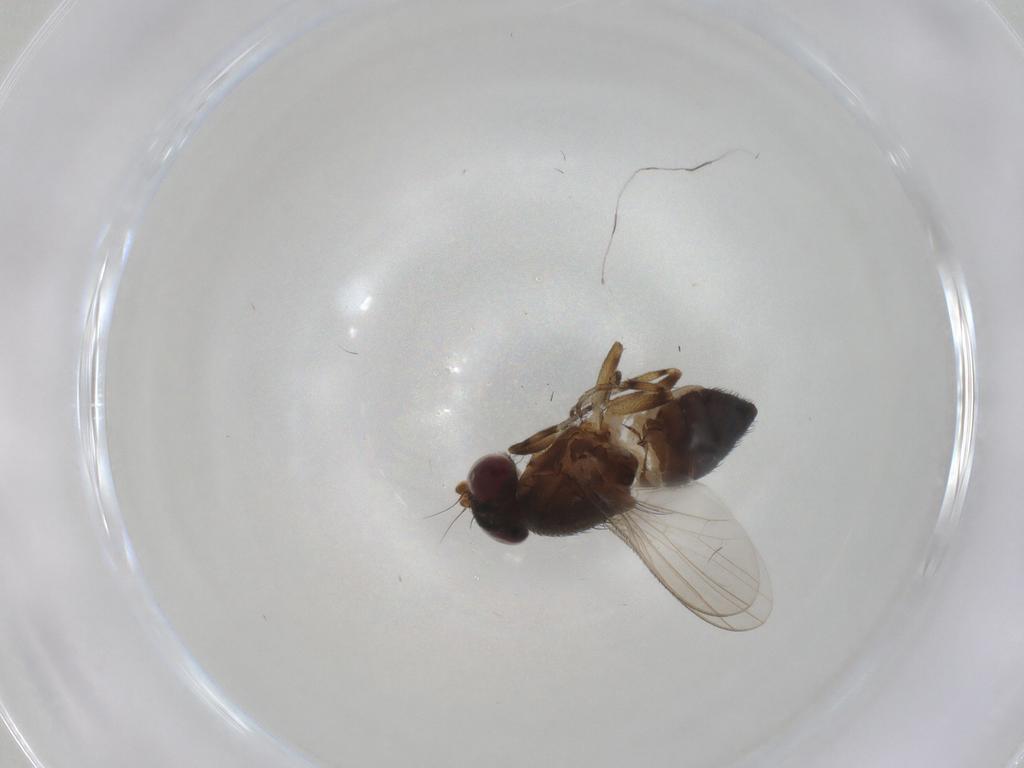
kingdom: Animalia
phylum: Arthropoda
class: Insecta
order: Diptera
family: Heleomyzidae
